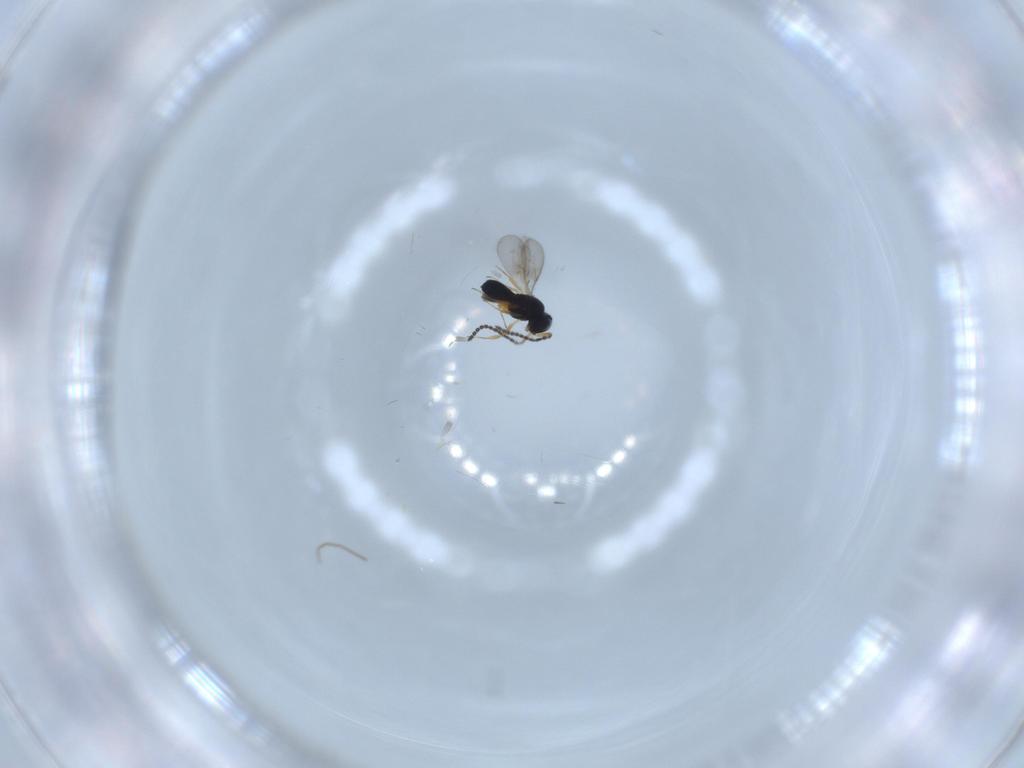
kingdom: Animalia
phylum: Arthropoda
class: Insecta
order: Hymenoptera
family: Scelionidae
